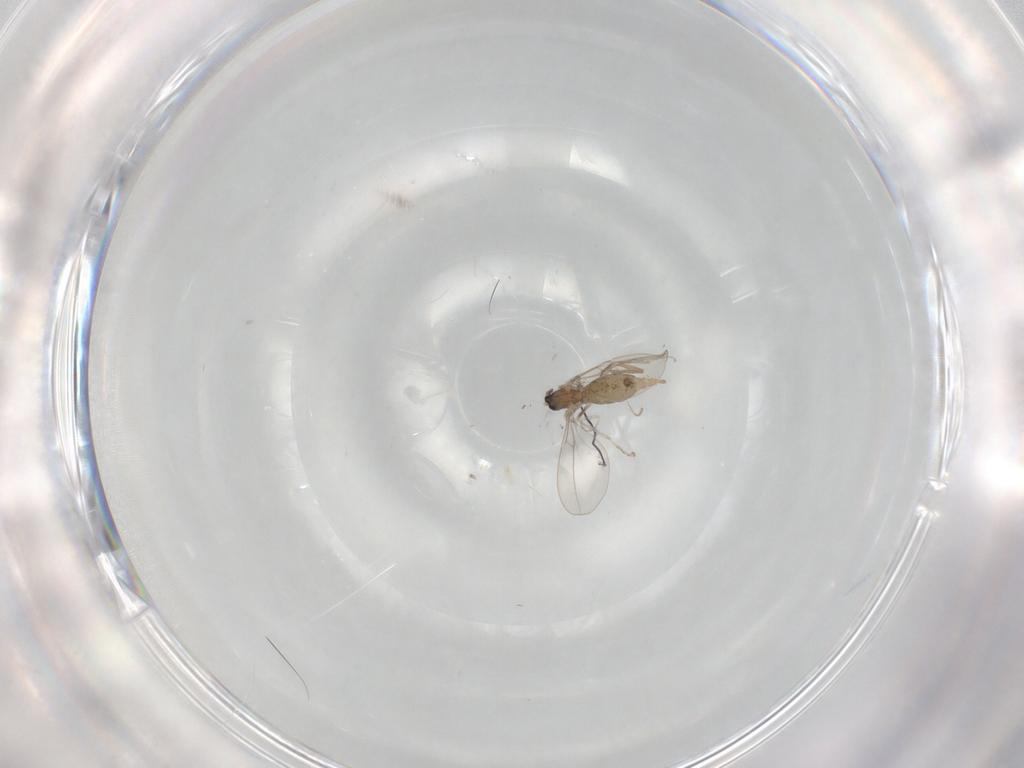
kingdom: Animalia
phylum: Arthropoda
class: Insecta
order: Diptera
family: Cecidomyiidae
